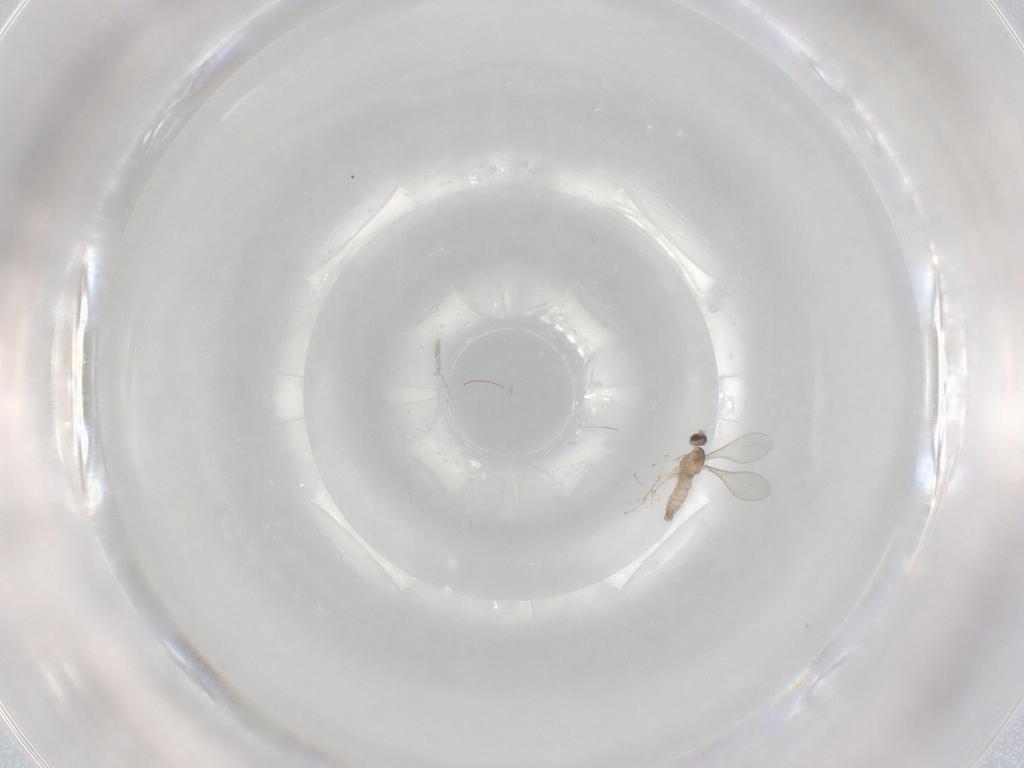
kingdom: Animalia
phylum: Arthropoda
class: Insecta
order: Diptera
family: Cecidomyiidae
